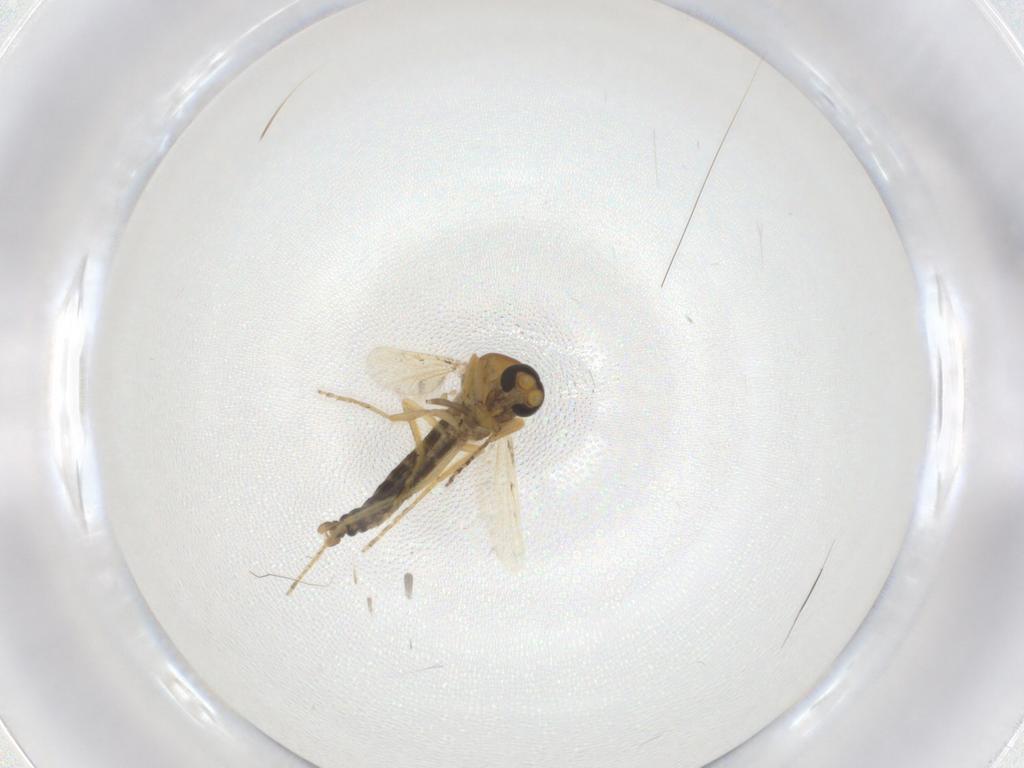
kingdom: Animalia
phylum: Arthropoda
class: Insecta
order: Diptera
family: Ceratopogonidae
